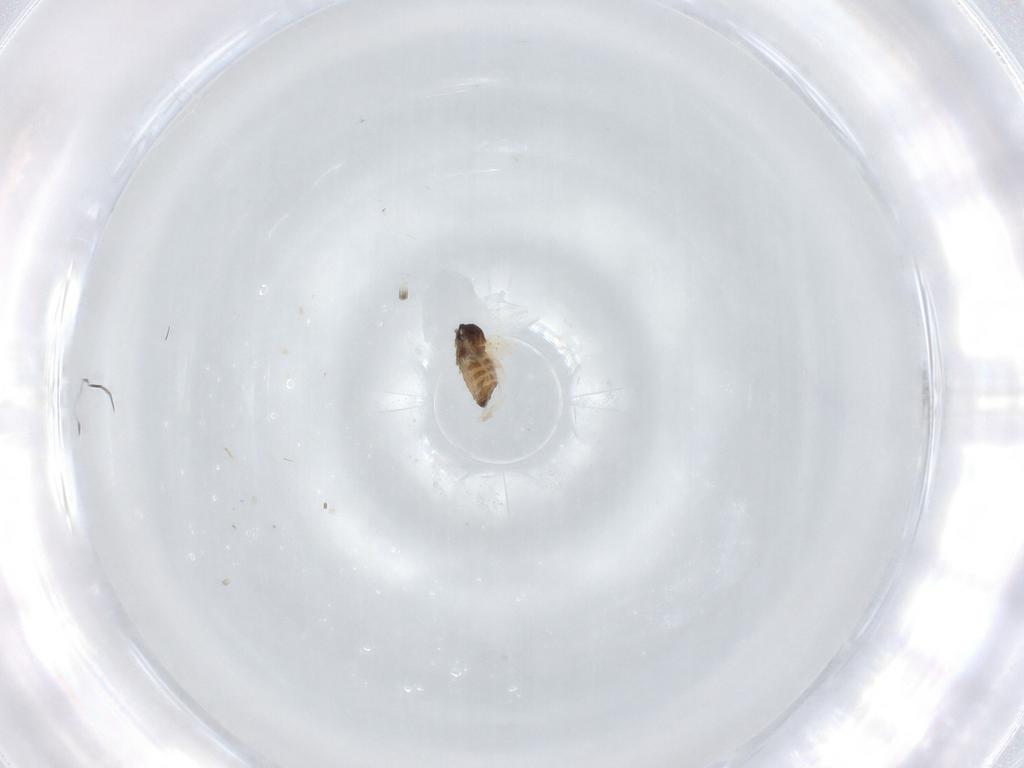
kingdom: Animalia
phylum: Arthropoda
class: Insecta
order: Diptera
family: Cecidomyiidae
